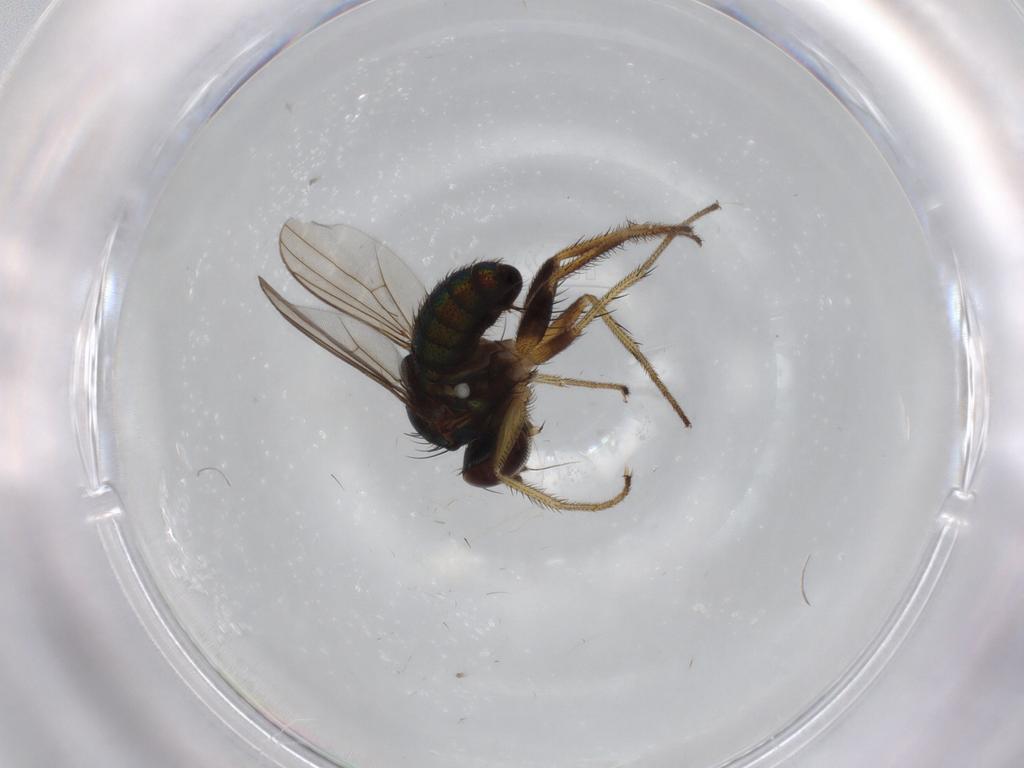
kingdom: Animalia
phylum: Arthropoda
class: Insecta
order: Diptera
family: Dolichopodidae
